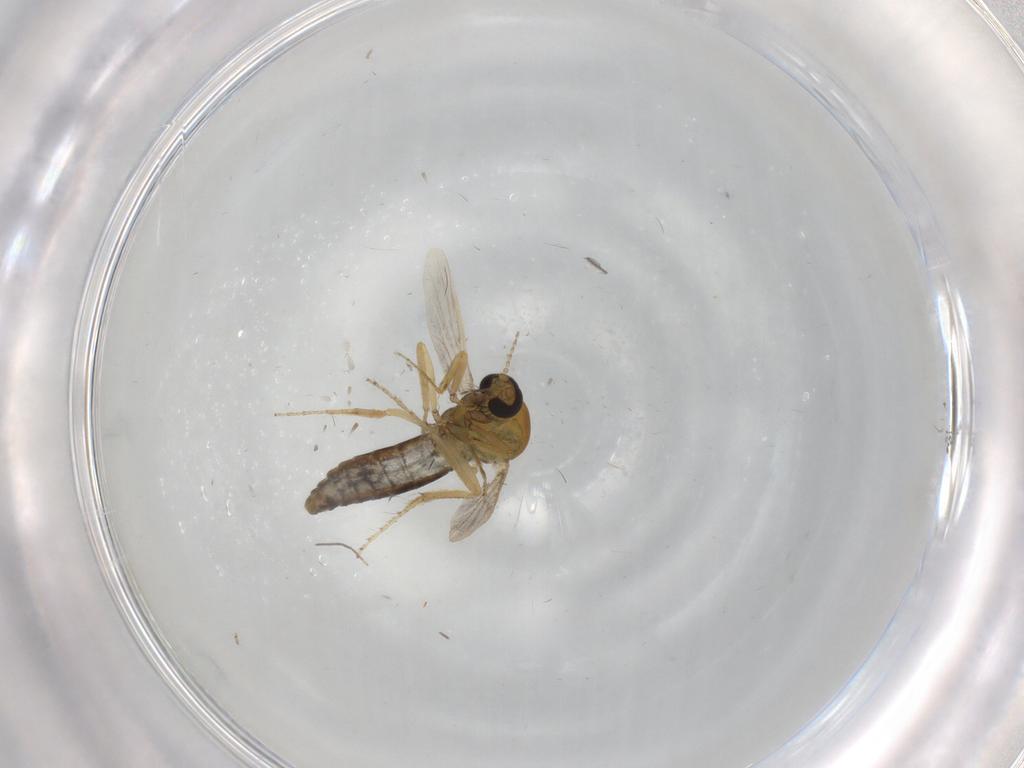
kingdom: Animalia
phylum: Arthropoda
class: Insecta
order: Diptera
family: Ceratopogonidae
